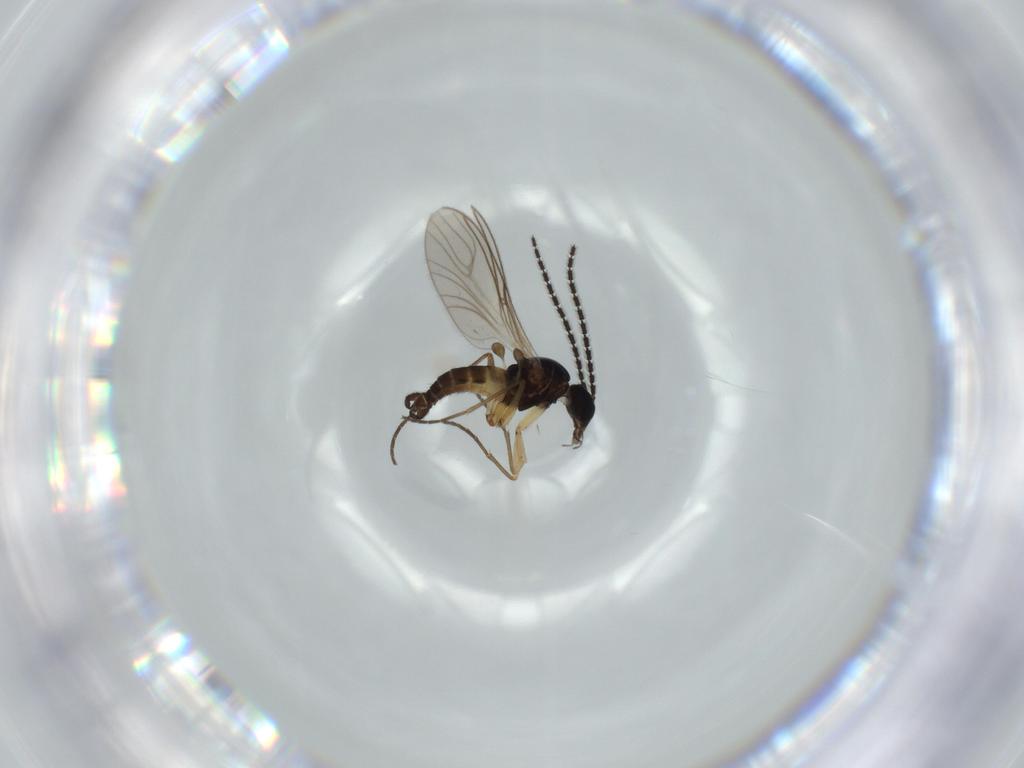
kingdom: Animalia
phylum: Arthropoda
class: Insecta
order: Diptera
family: Sciaridae
